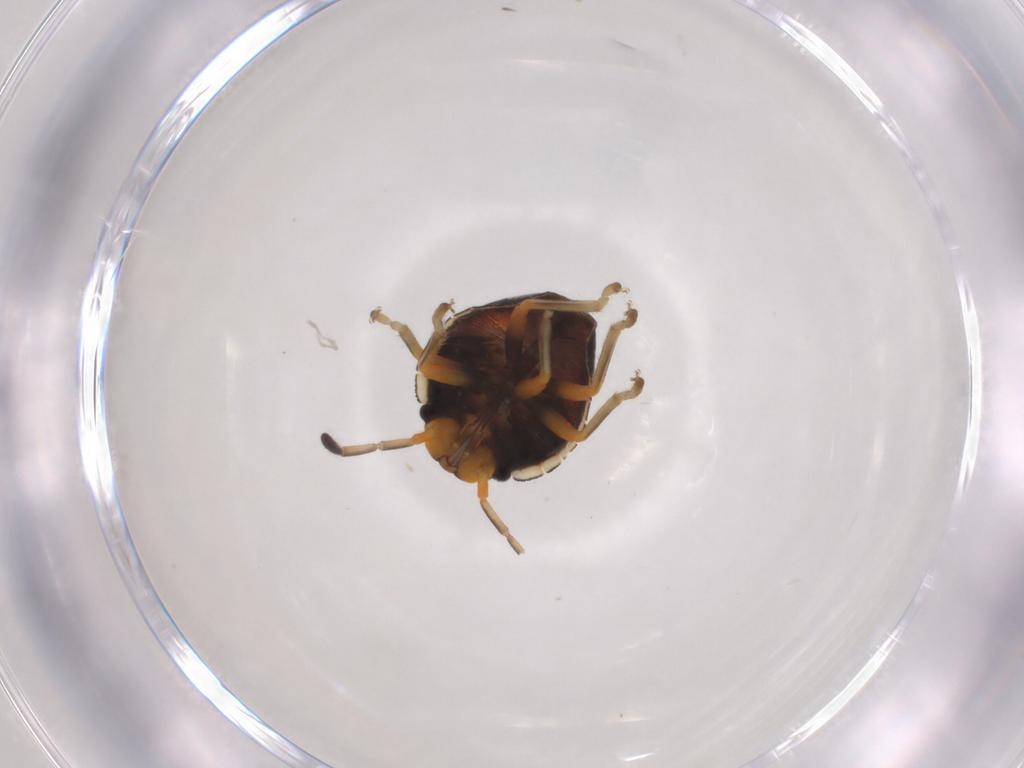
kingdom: Animalia
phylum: Arthropoda
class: Insecta
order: Hemiptera
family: Pentatomidae
